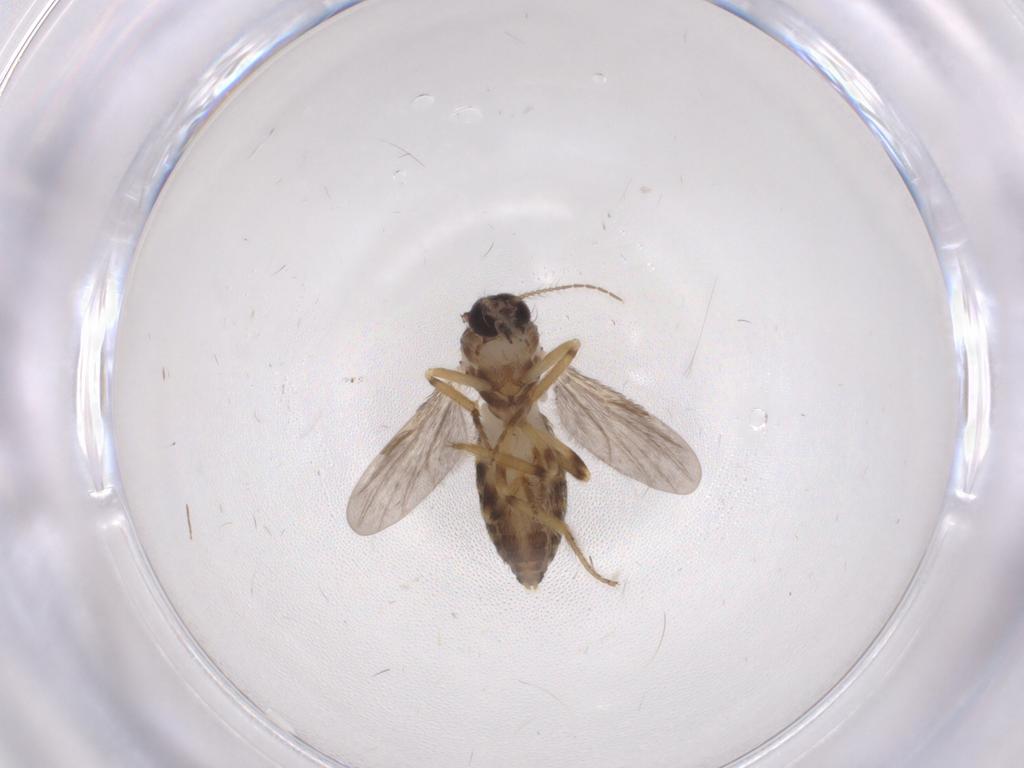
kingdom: Animalia
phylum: Arthropoda
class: Insecta
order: Diptera
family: Ceratopogonidae
